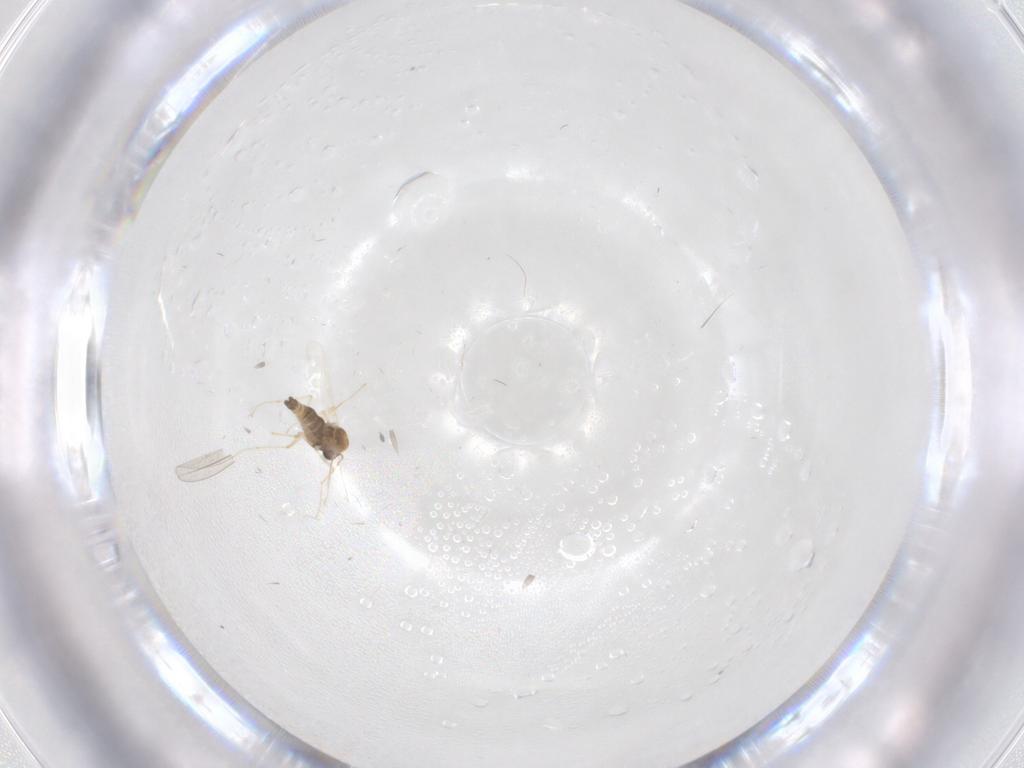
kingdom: Animalia
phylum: Arthropoda
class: Insecta
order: Diptera
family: Chironomidae
